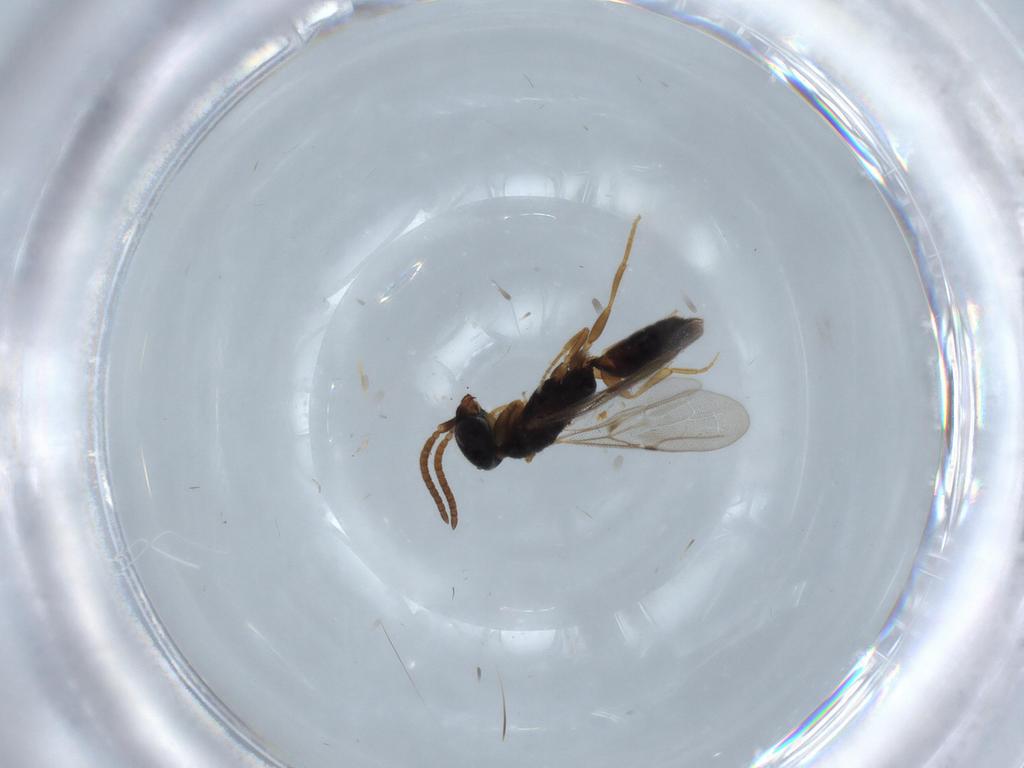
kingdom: Animalia
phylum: Arthropoda
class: Insecta
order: Hymenoptera
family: Bethylidae
